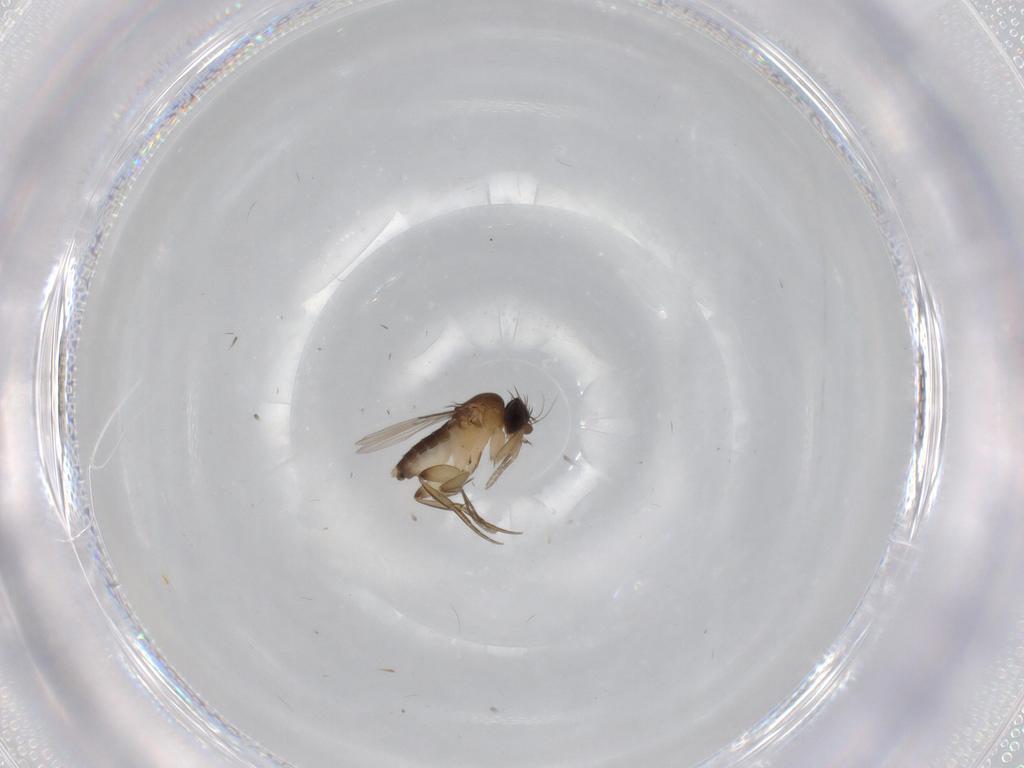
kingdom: Animalia
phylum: Arthropoda
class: Insecta
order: Diptera
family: Phoridae
